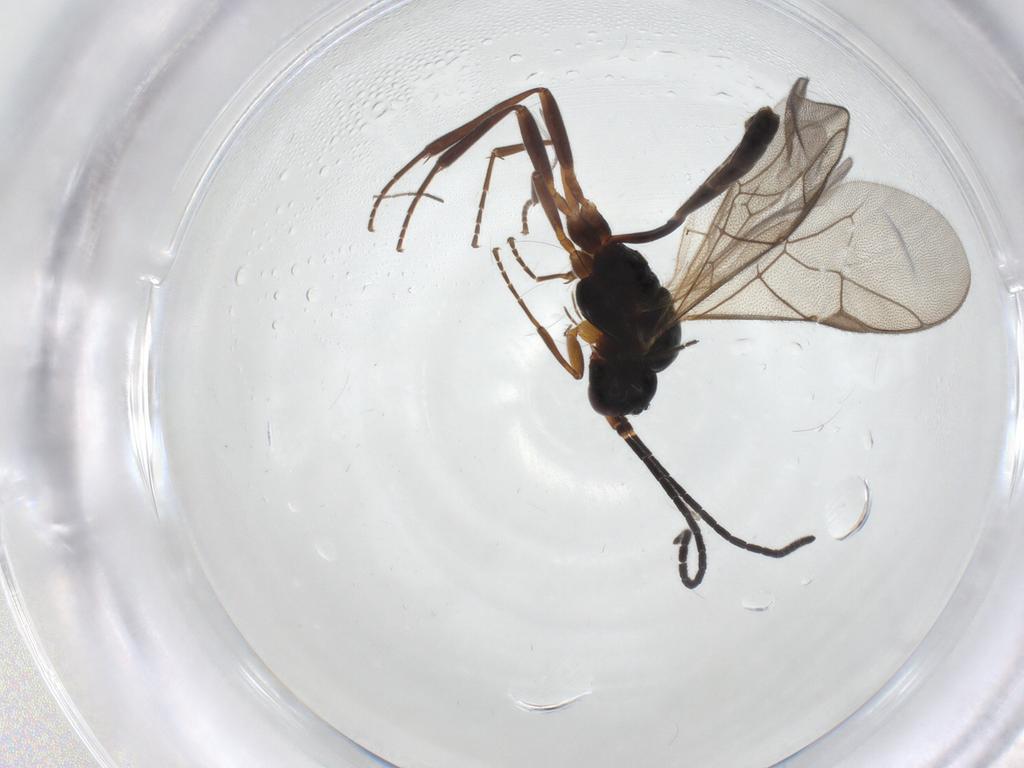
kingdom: Animalia
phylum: Arthropoda
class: Insecta
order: Hymenoptera
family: Ichneumonidae
